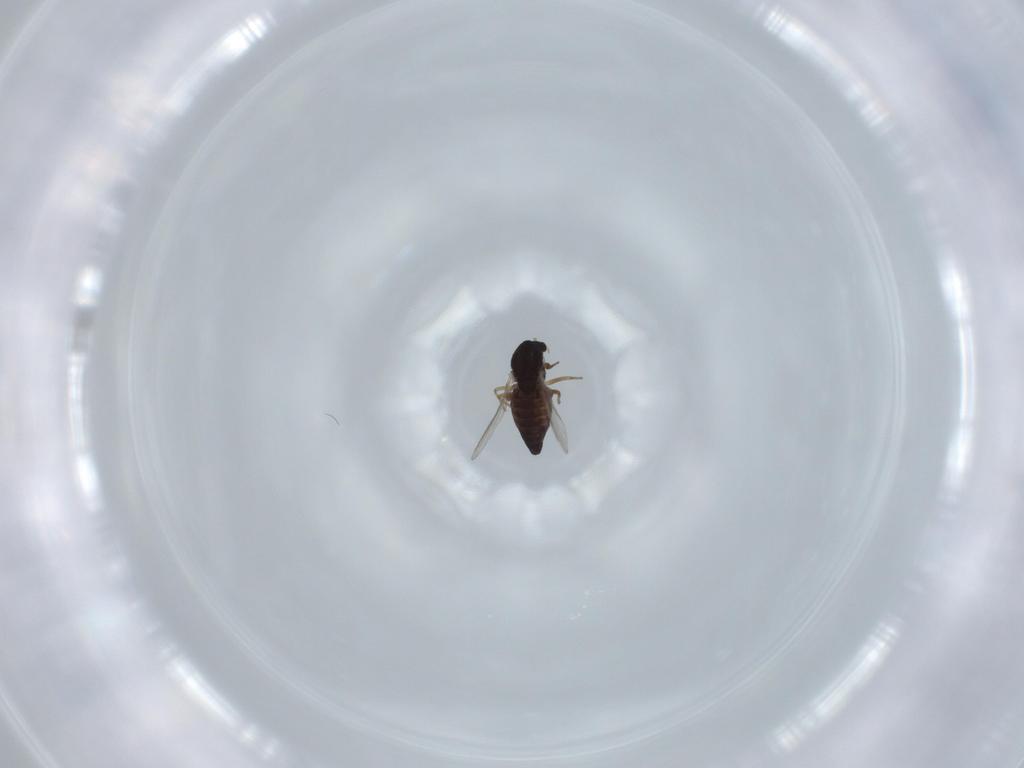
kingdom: Animalia
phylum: Arthropoda
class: Insecta
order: Diptera
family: Chironomidae
